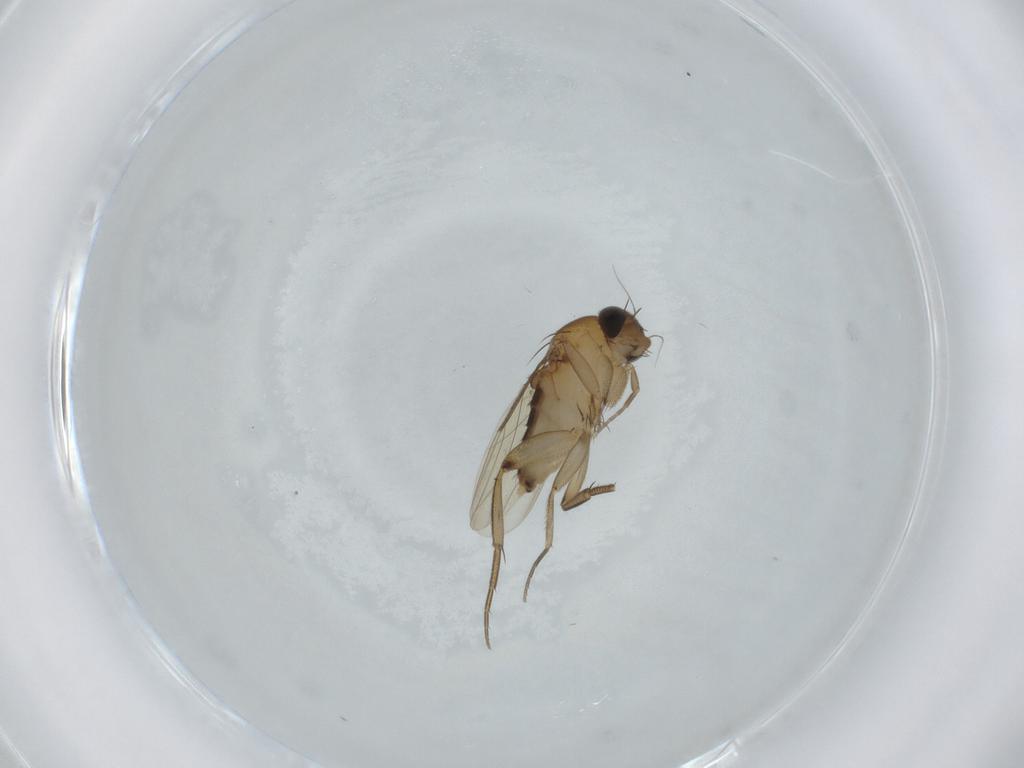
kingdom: Animalia
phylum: Arthropoda
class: Insecta
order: Diptera
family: Phoridae
